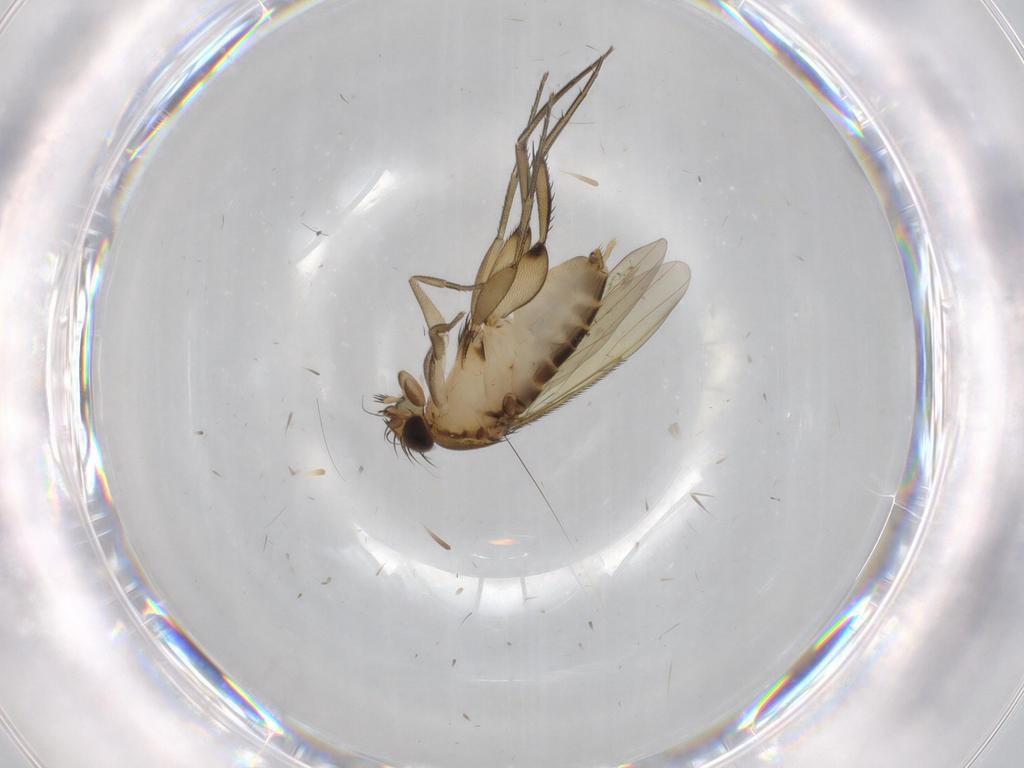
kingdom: Animalia
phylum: Arthropoda
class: Insecta
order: Diptera
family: Phoridae
